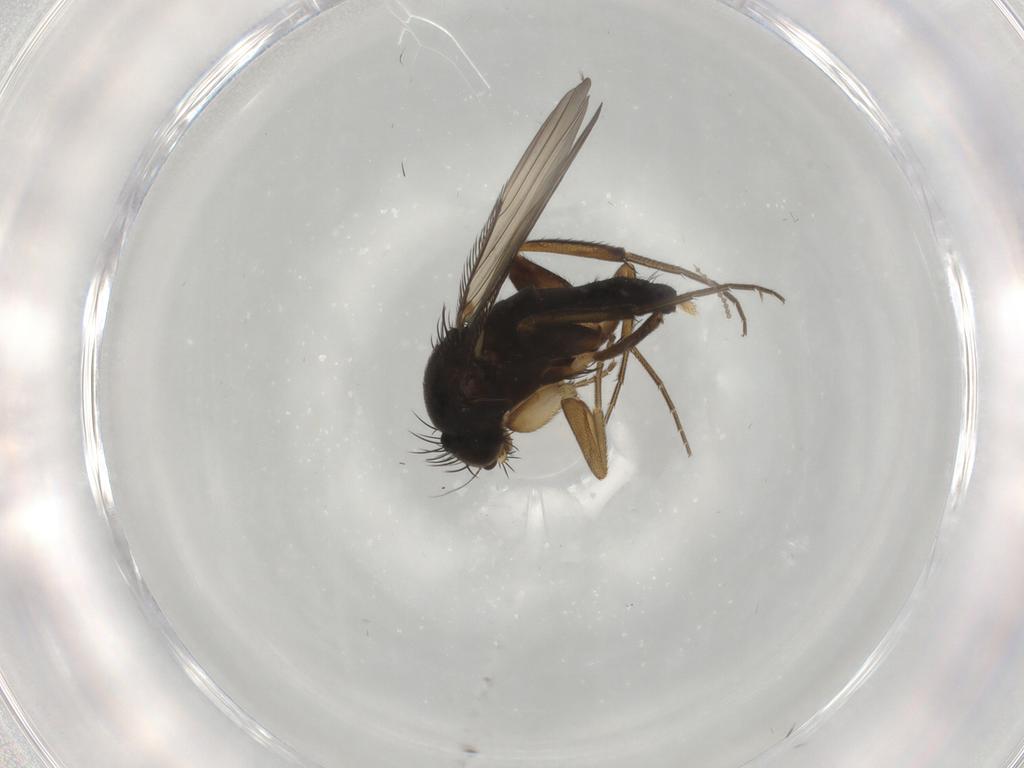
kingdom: Animalia
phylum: Arthropoda
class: Insecta
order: Diptera
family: Phoridae
